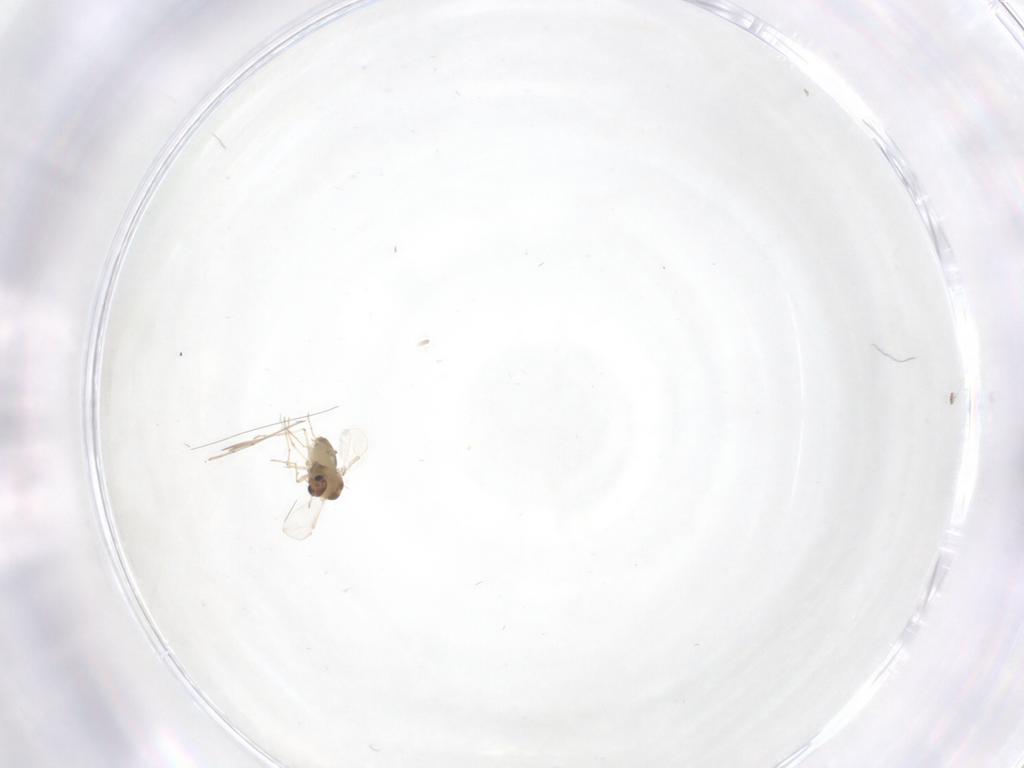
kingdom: Animalia
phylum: Arthropoda
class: Insecta
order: Diptera
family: Chironomidae
